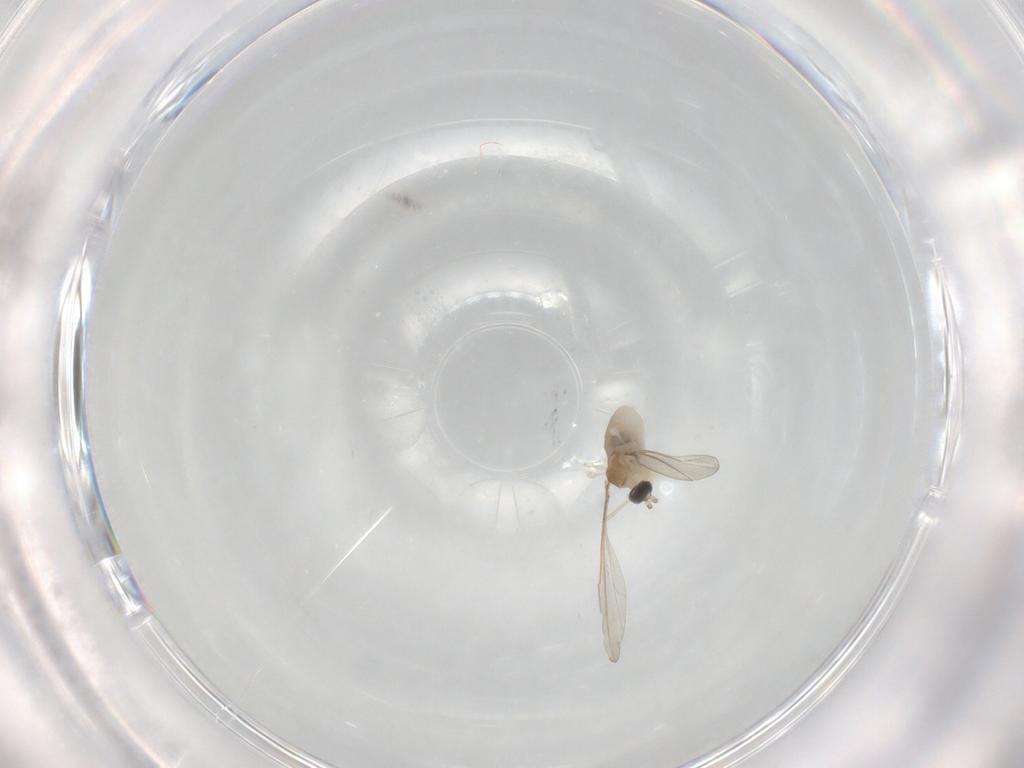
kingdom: Animalia
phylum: Arthropoda
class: Insecta
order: Diptera
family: Cecidomyiidae
